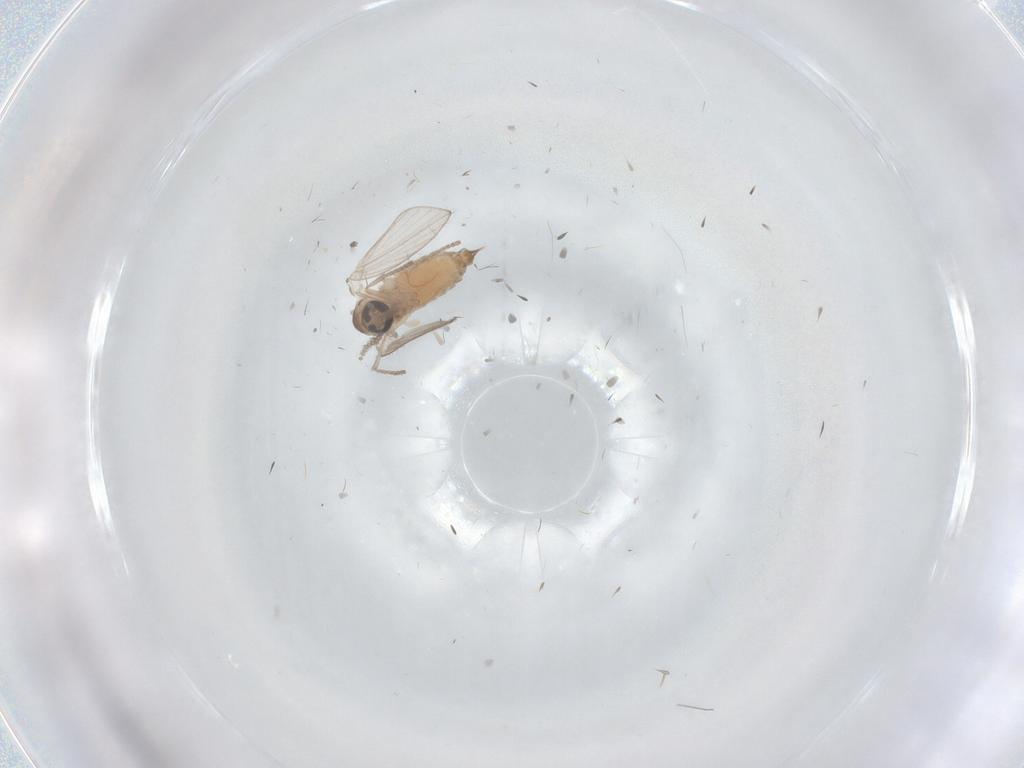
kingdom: Animalia
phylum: Arthropoda
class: Insecta
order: Diptera
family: Psychodidae
